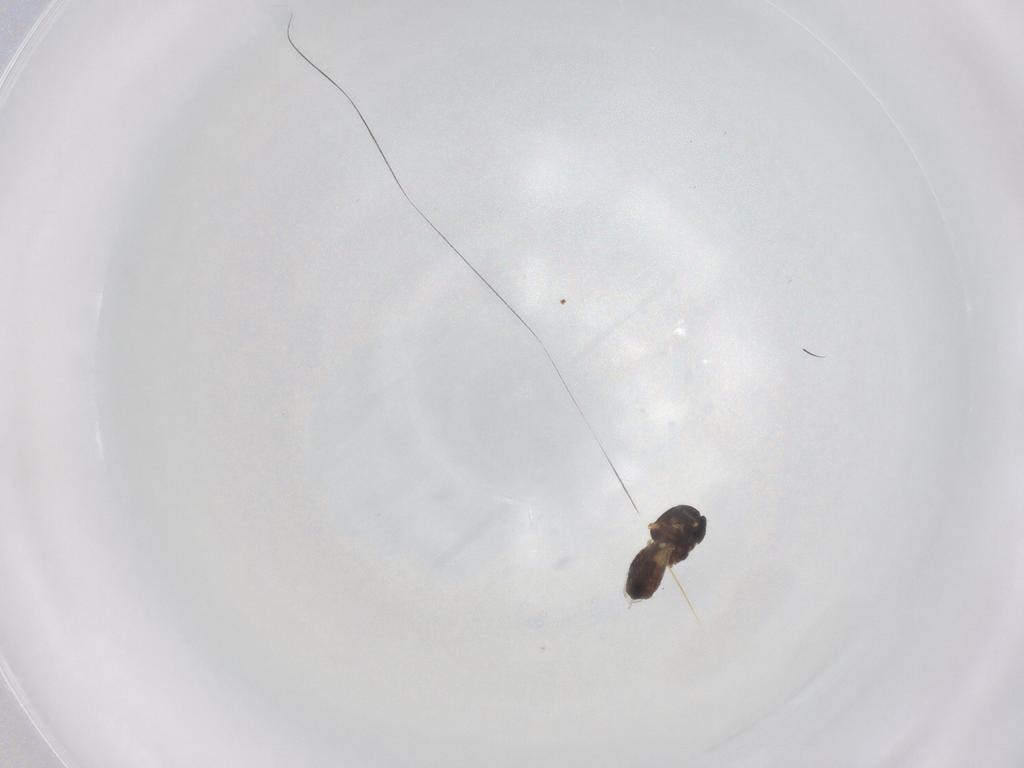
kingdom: Animalia
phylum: Arthropoda
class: Insecta
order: Diptera
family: Ceratopogonidae
